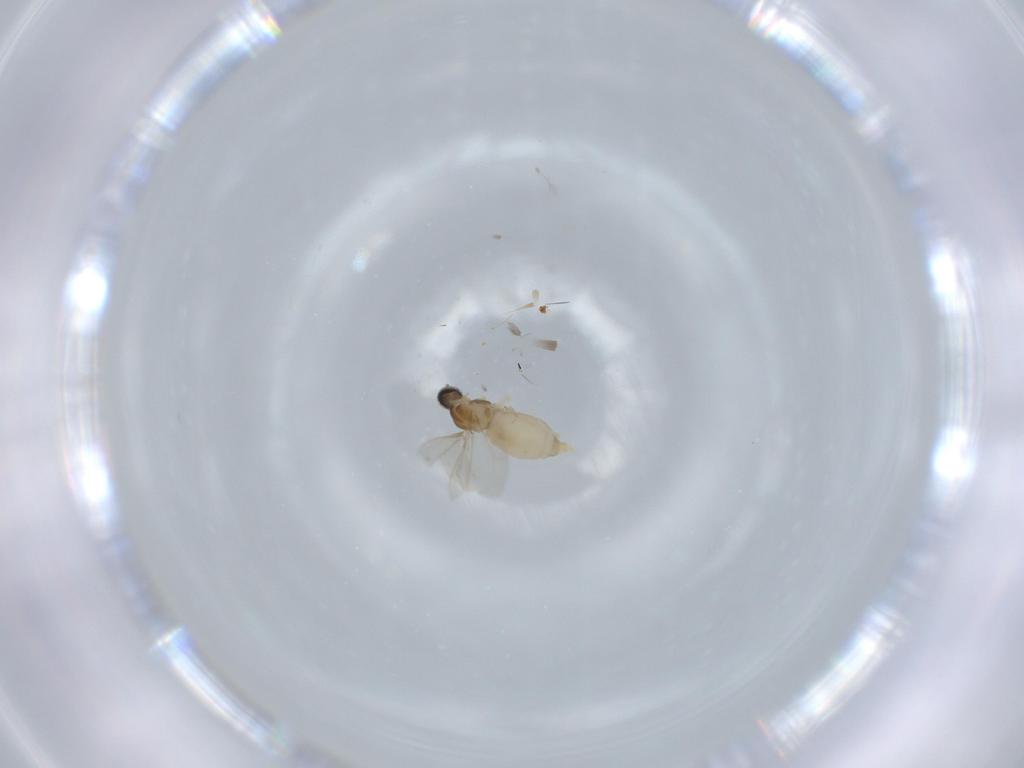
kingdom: Animalia
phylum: Arthropoda
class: Insecta
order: Diptera
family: Cecidomyiidae
